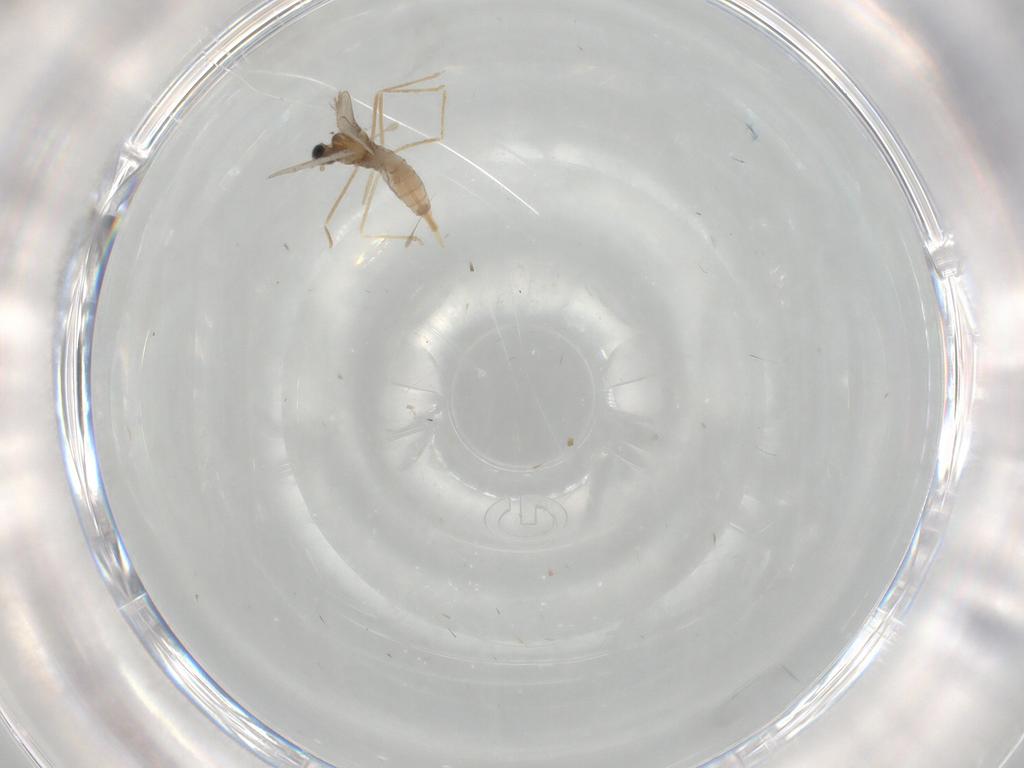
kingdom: Animalia
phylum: Arthropoda
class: Insecta
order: Diptera
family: Cecidomyiidae
